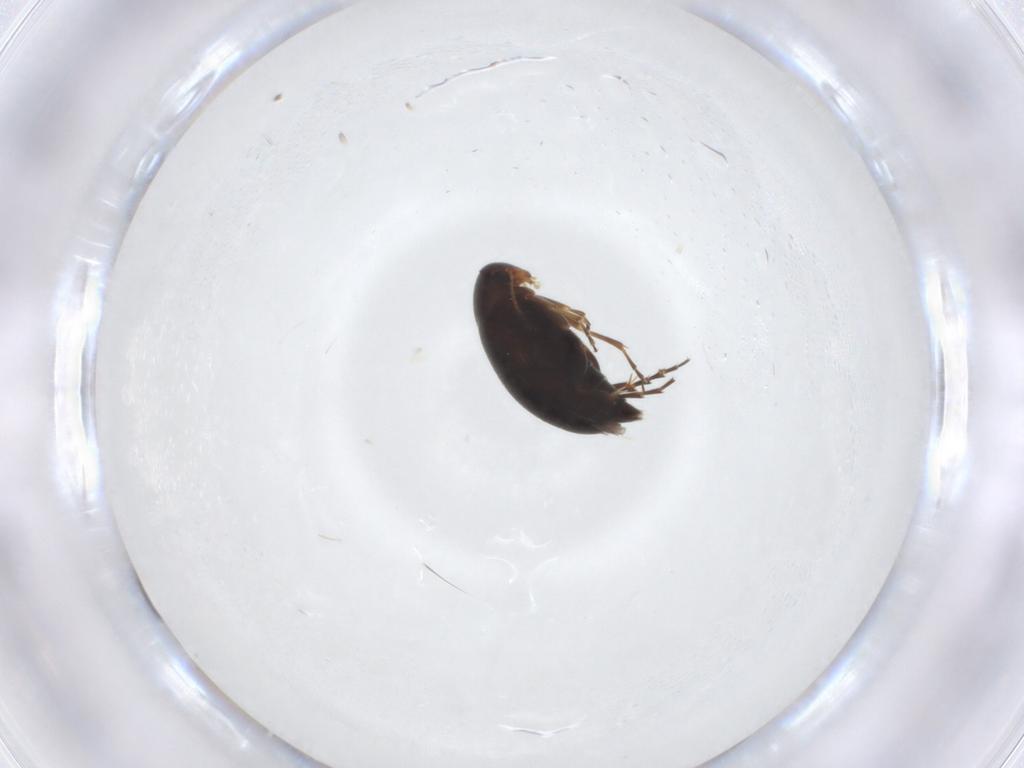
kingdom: Animalia
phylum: Arthropoda
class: Insecta
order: Coleoptera
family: Scraptiidae
